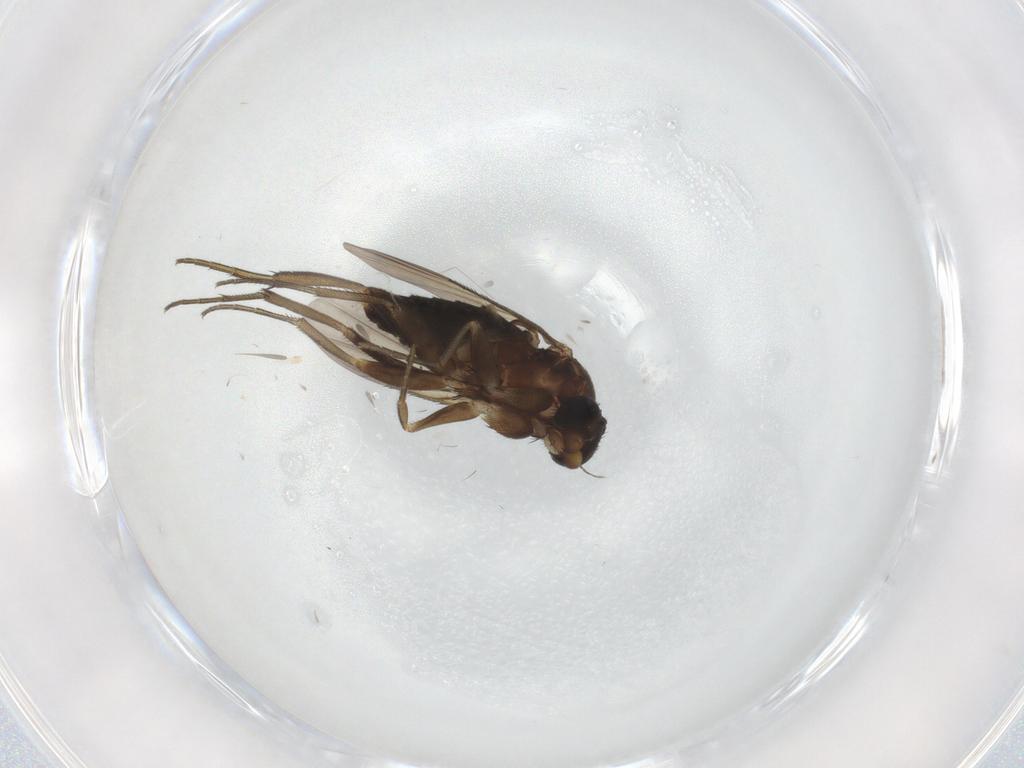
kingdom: Animalia
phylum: Arthropoda
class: Insecta
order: Diptera
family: Phoridae
